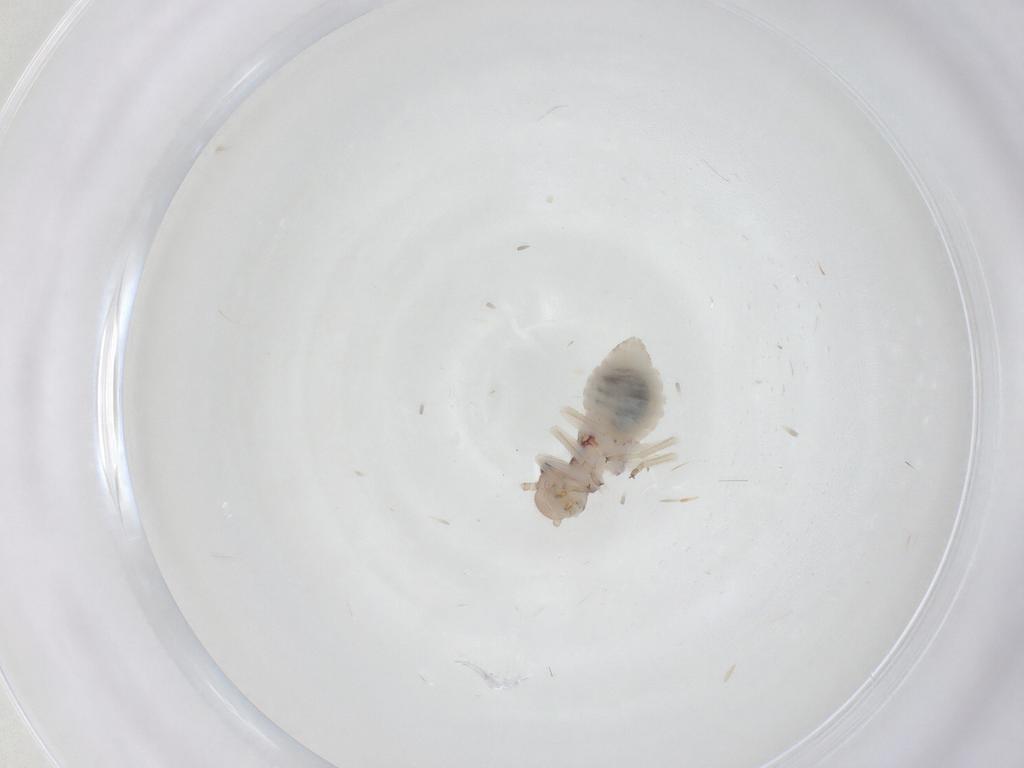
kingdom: Animalia
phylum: Arthropoda
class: Insecta
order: Psocodea
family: Amphipsocidae
